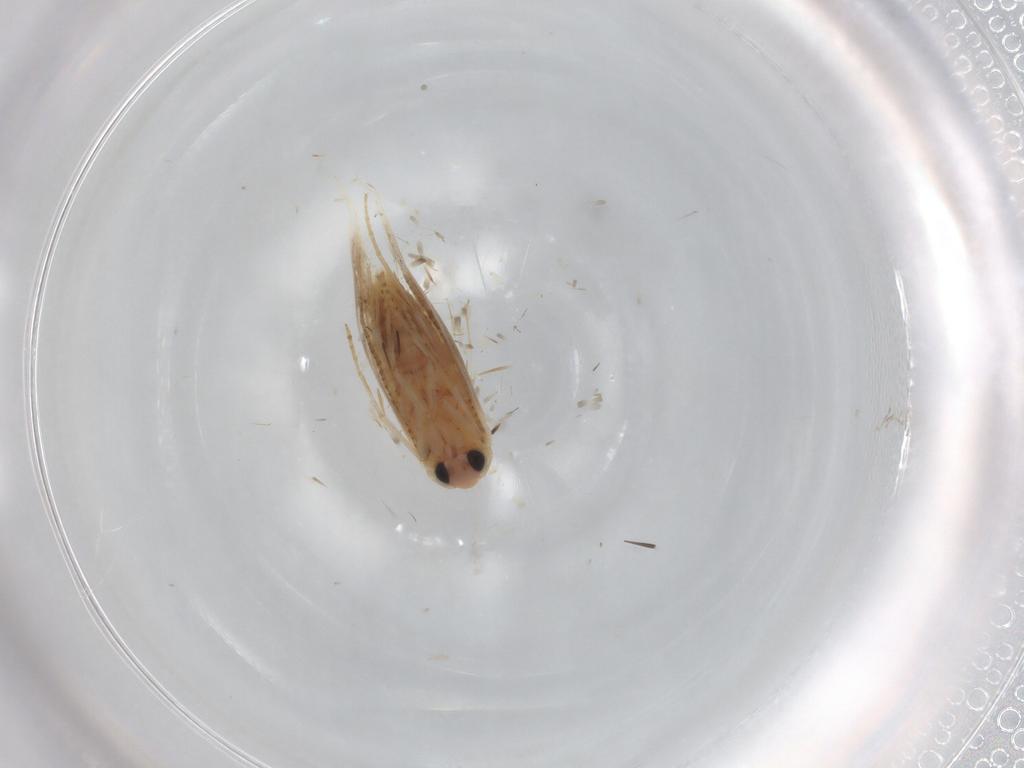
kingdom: Animalia
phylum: Arthropoda
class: Insecta
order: Lepidoptera
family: Bucculatricidae
